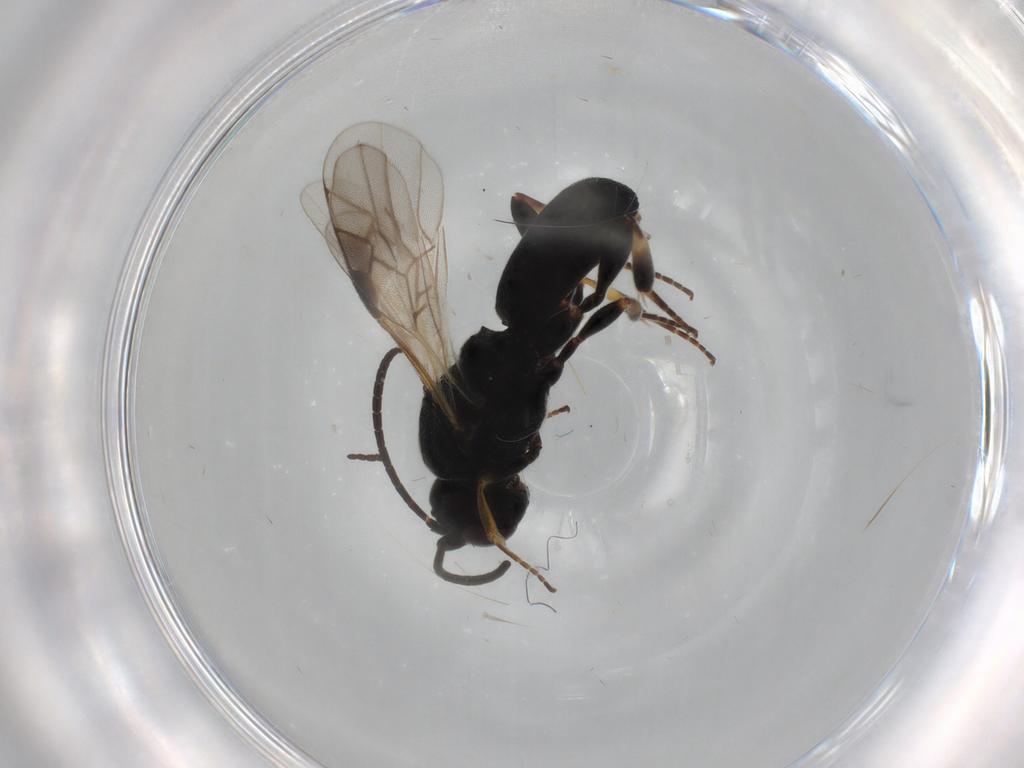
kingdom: Animalia
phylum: Arthropoda
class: Insecta
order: Hymenoptera
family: Braconidae
